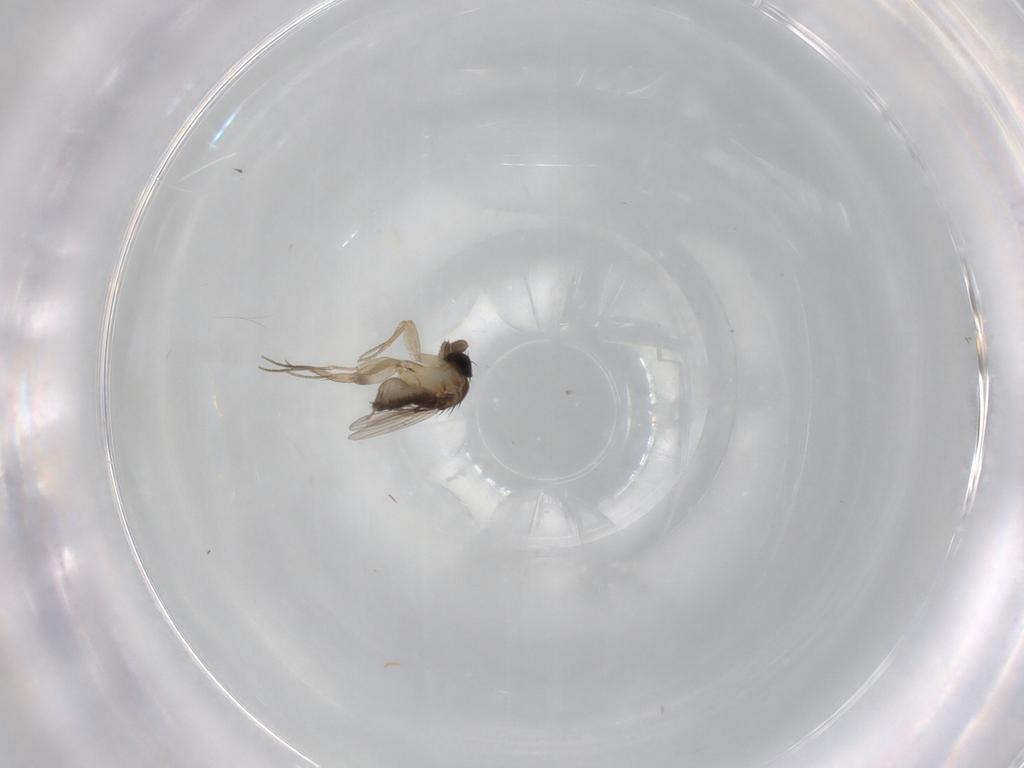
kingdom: Animalia
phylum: Arthropoda
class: Insecta
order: Diptera
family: Phoridae
